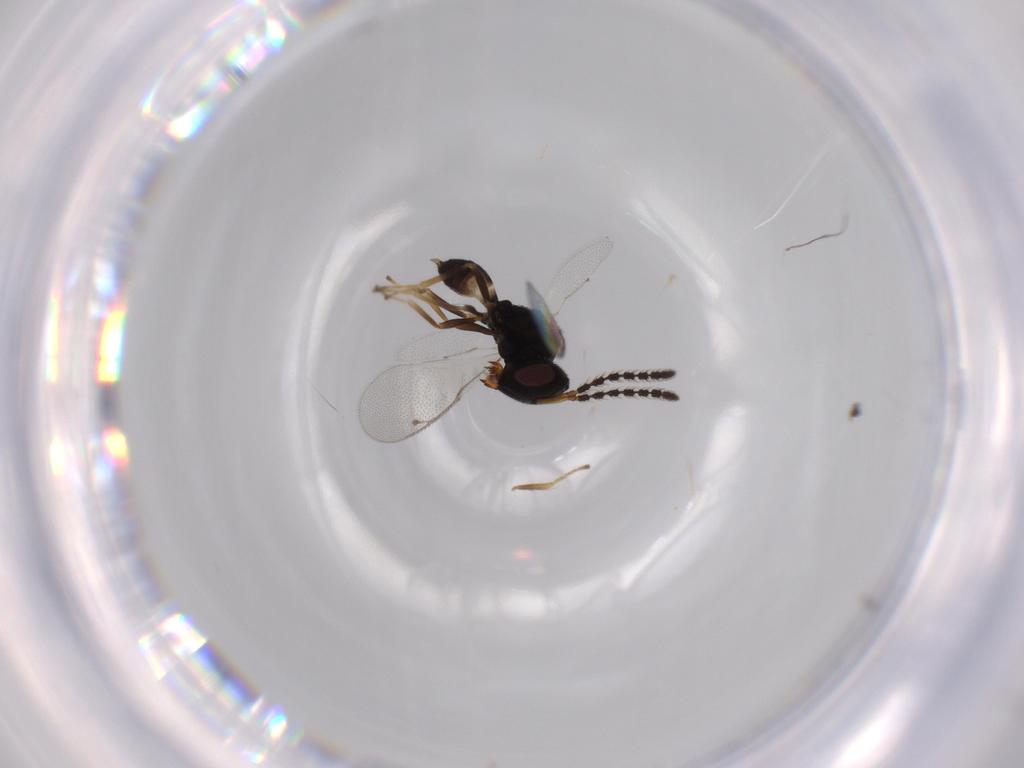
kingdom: Animalia
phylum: Arthropoda
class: Insecta
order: Hymenoptera
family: Pteromalidae
